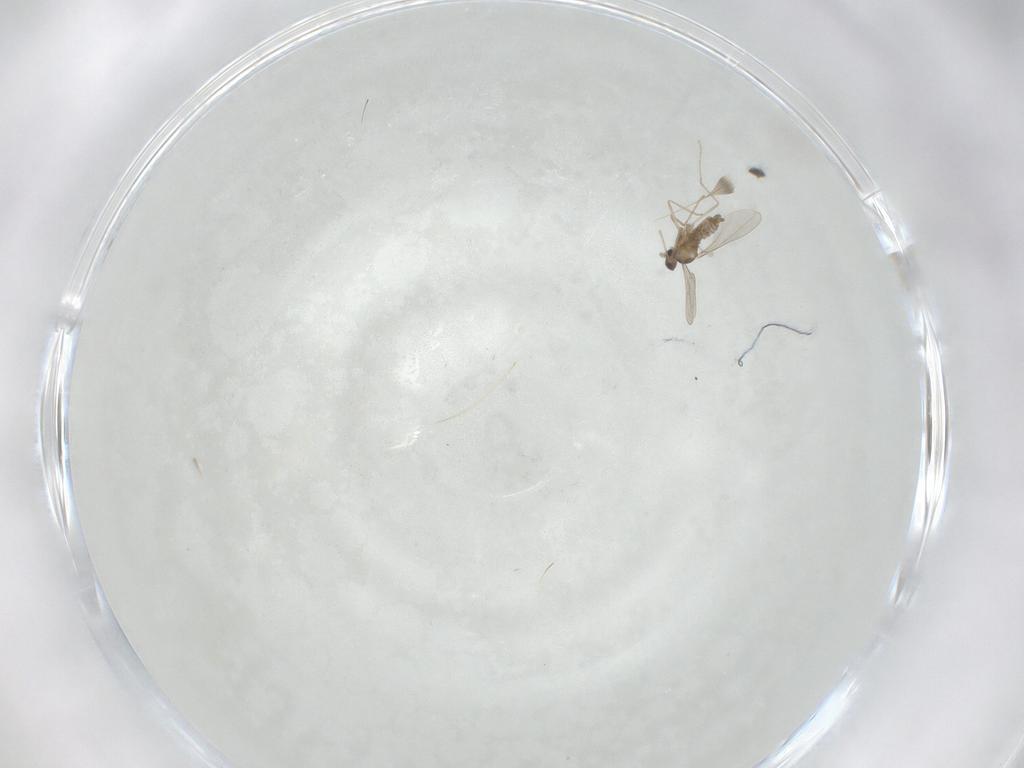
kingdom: Animalia
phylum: Arthropoda
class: Insecta
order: Diptera
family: Cecidomyiidae
